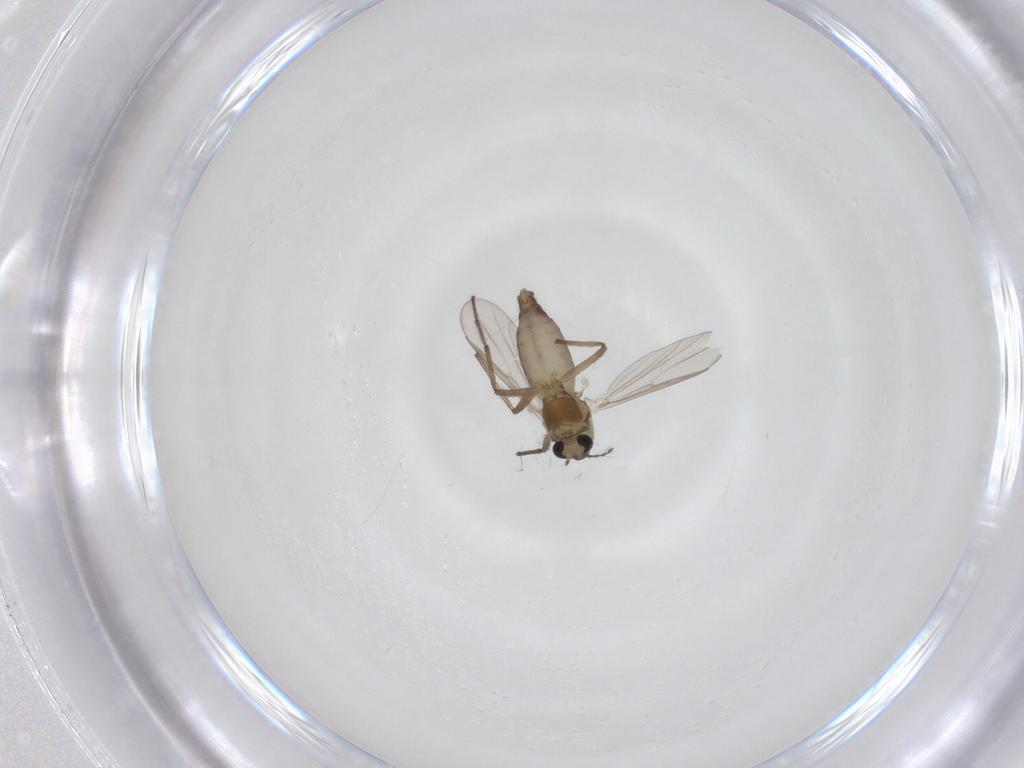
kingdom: Animalia
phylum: Arthropoda
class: Insecta
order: Diptera
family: Chironomidae
